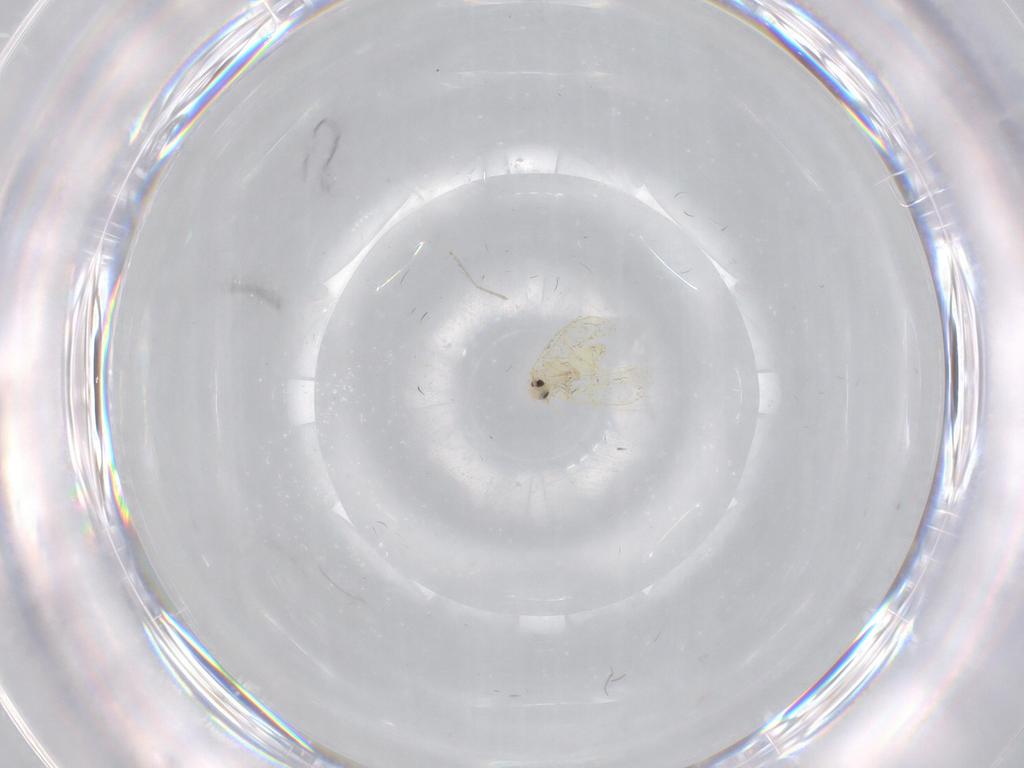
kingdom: Animalia
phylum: Arthropoda
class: Insecta
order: Hemiptera
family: Aleyrodidae
